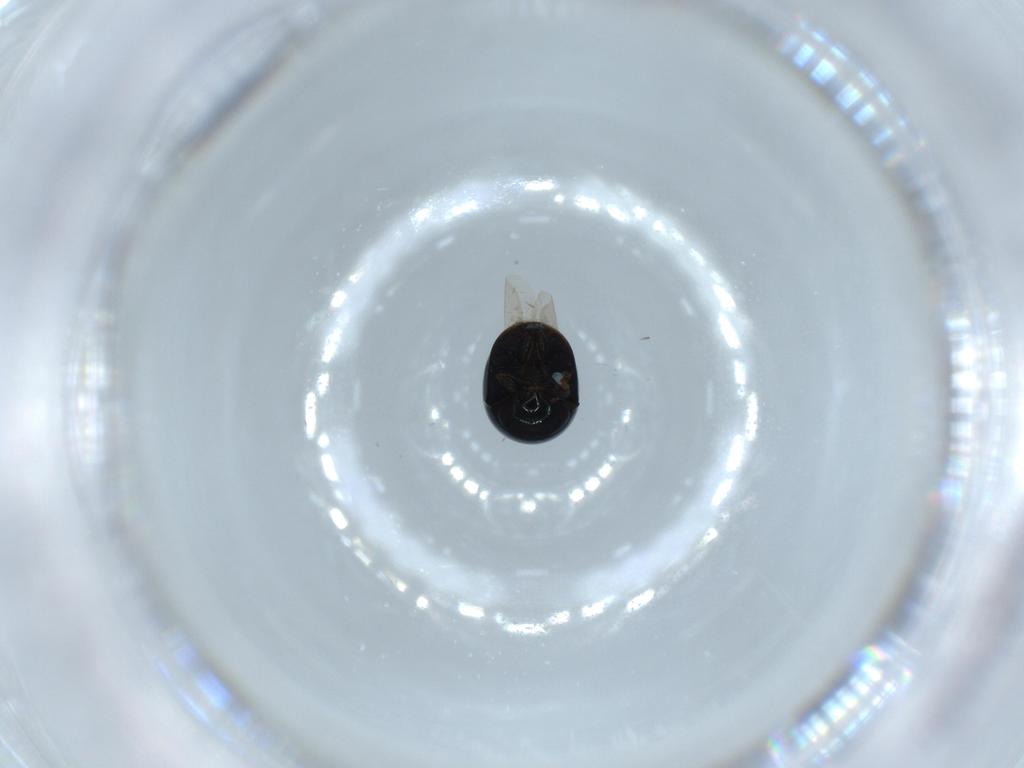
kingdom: Animalia
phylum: Arthropoda
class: Insecta
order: Coleoptera
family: Cybocephalidae
